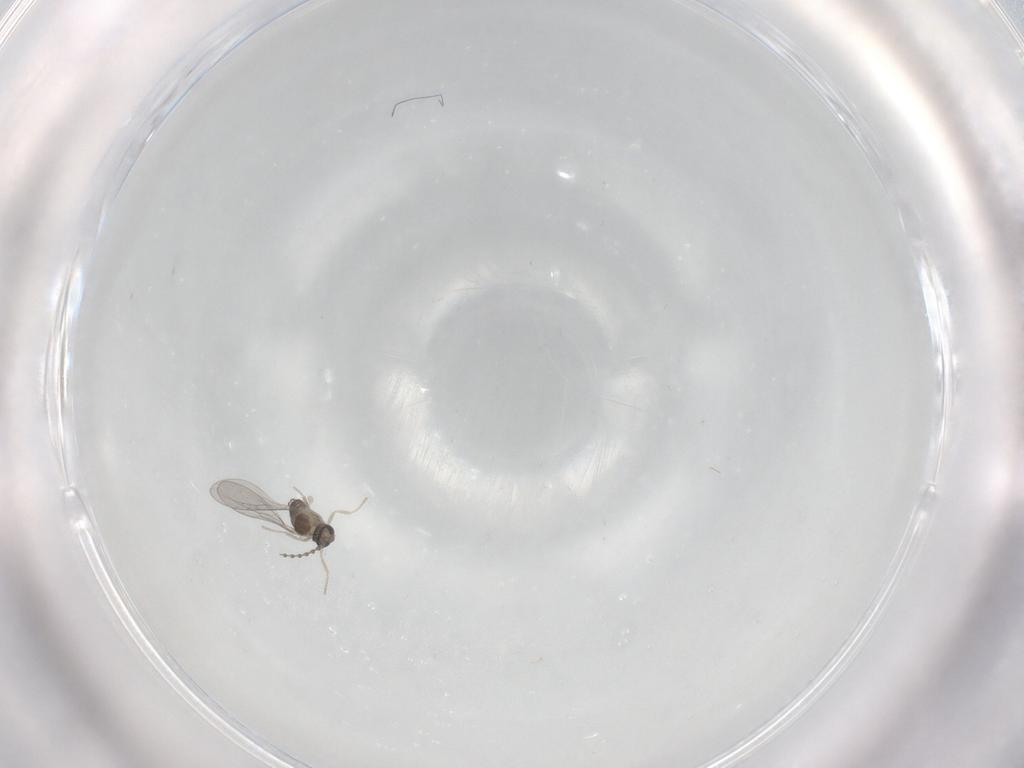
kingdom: Animalia
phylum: Arthropoda
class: Insecta
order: Diptera
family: Cecidomyiidae
